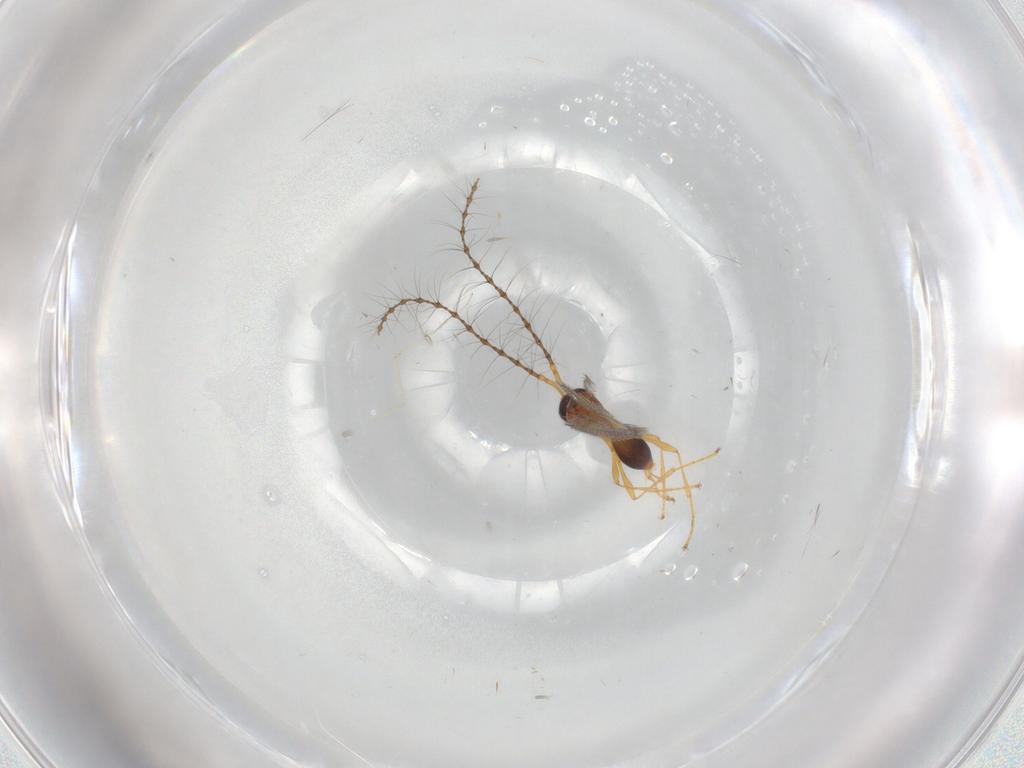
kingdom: Animalia
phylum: Arthropoda
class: Insecta
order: Hymenoptera
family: Diapriidae
